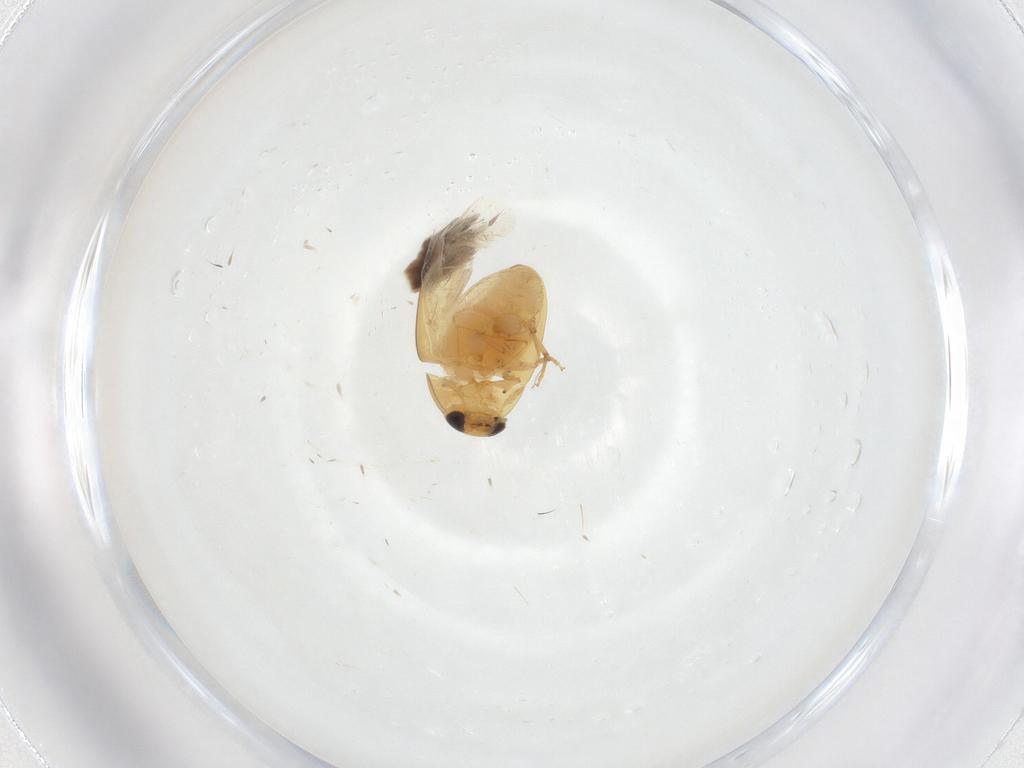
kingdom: Animalia
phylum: Arthropoda
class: Insecta
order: Coleoptera
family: Phalacridae
